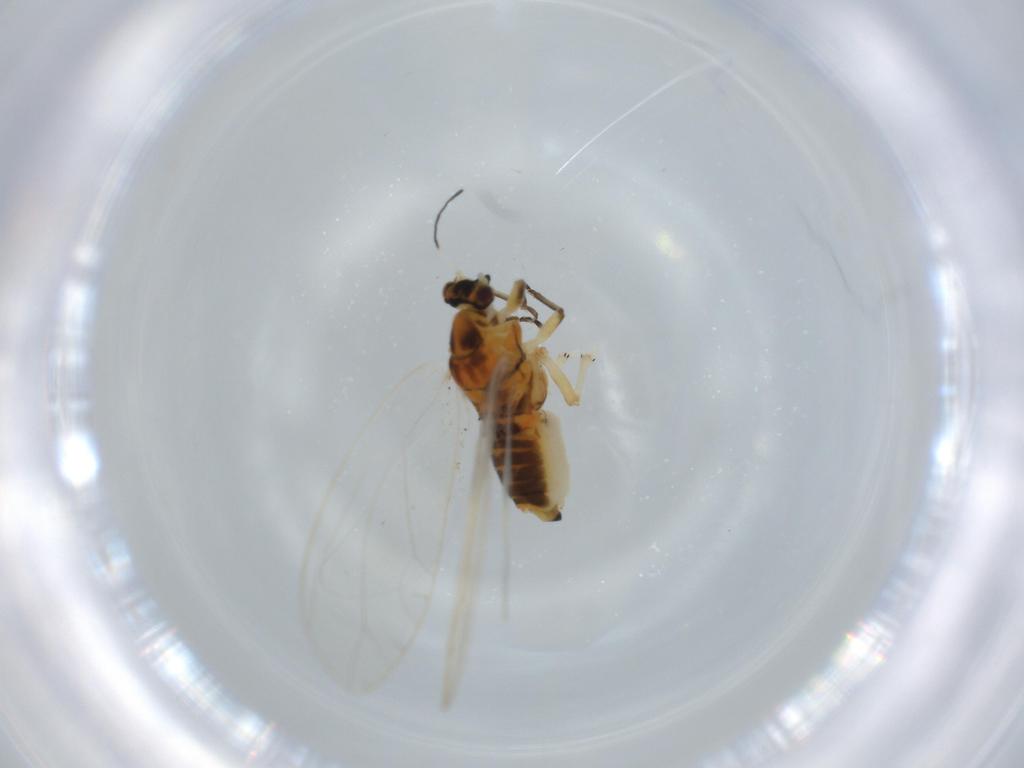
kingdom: Animalia
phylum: Arthropoda
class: Insecta
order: Hemiptera
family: Triozidae
